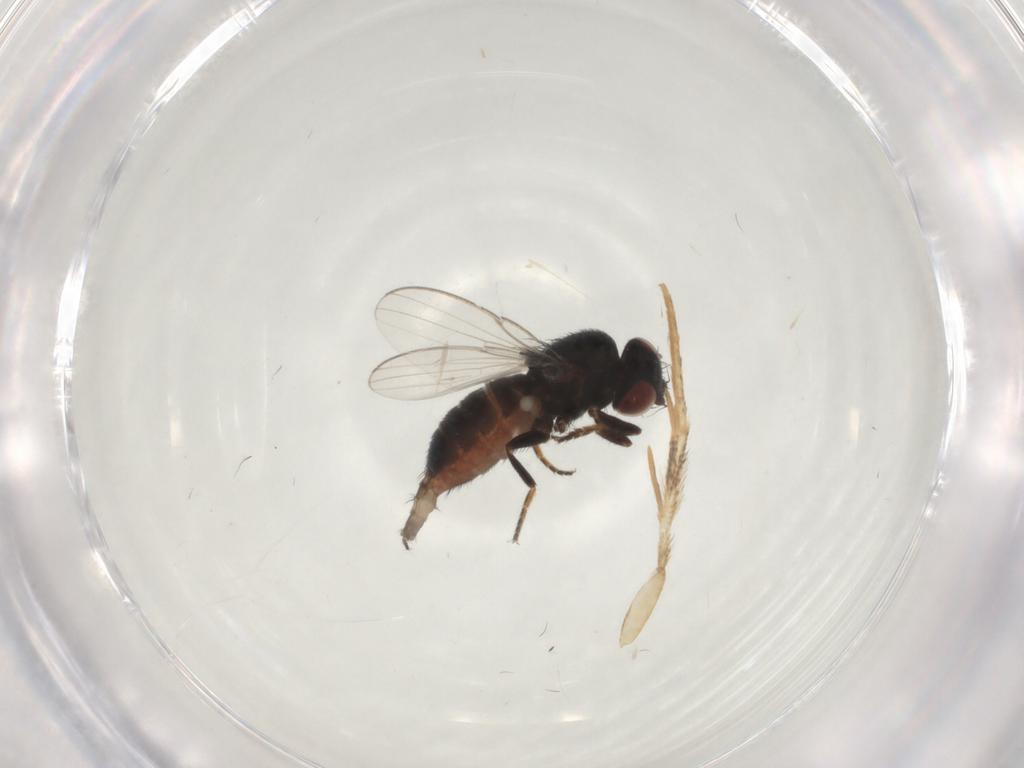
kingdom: Animalia
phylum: Arthropoda
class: Insecta
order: Diptera
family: Milichiidae
